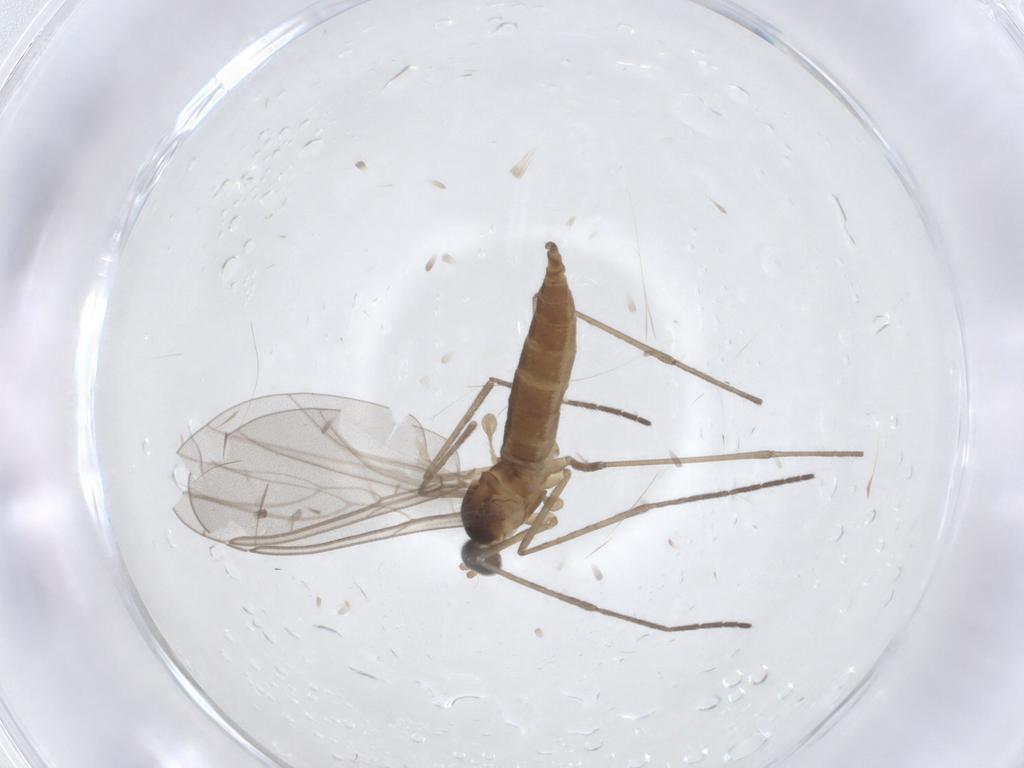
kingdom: Animalia
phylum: Arthropoda
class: Insecta
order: Diptera
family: Cecidomyiidae
